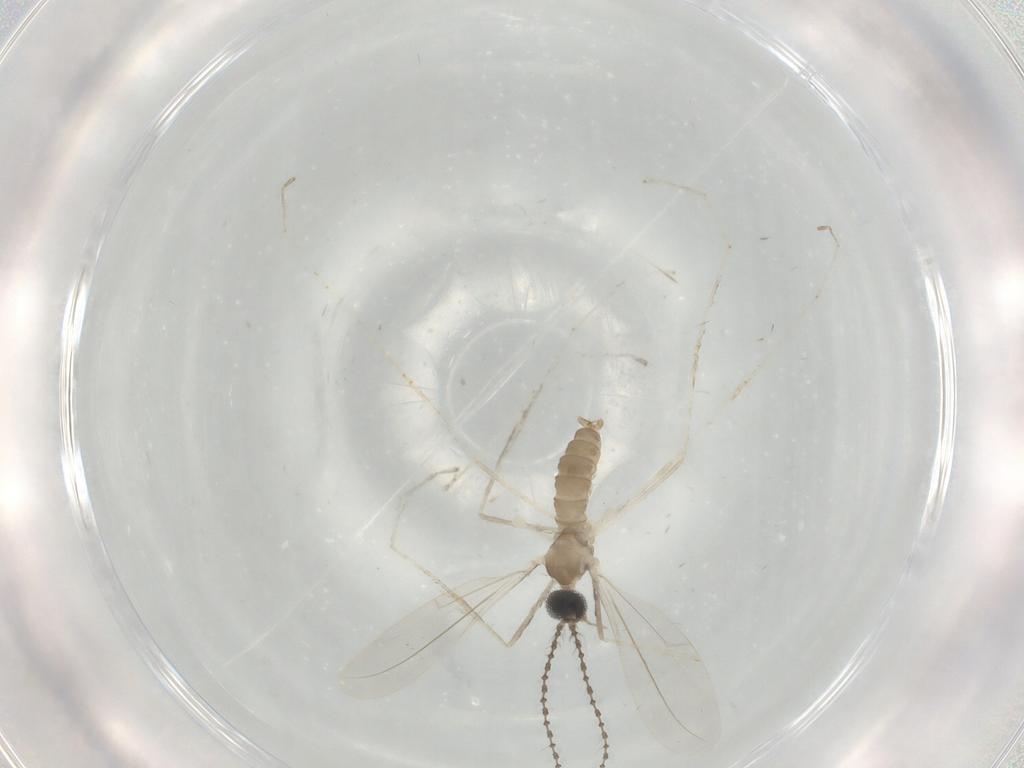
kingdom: Animalia
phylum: Arthropoda
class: Insecta
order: Diptera
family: Cecidomyiidae
